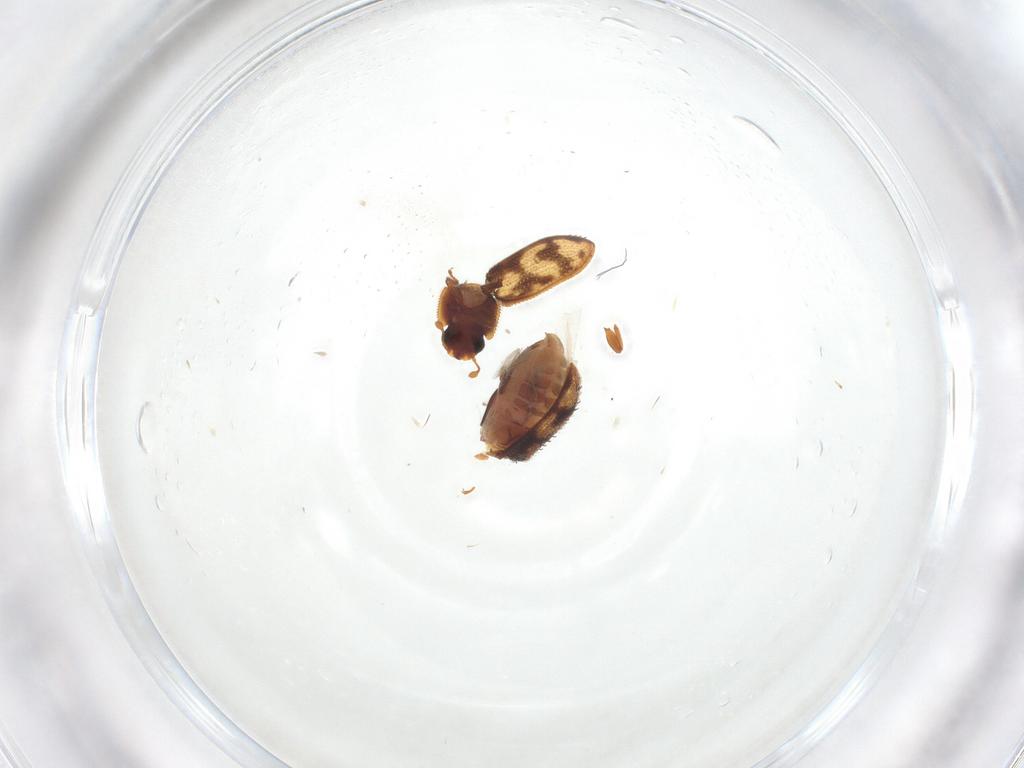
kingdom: Animalia
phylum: Arthropoda
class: Insecta
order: Coleoptera
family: Zopheridae
